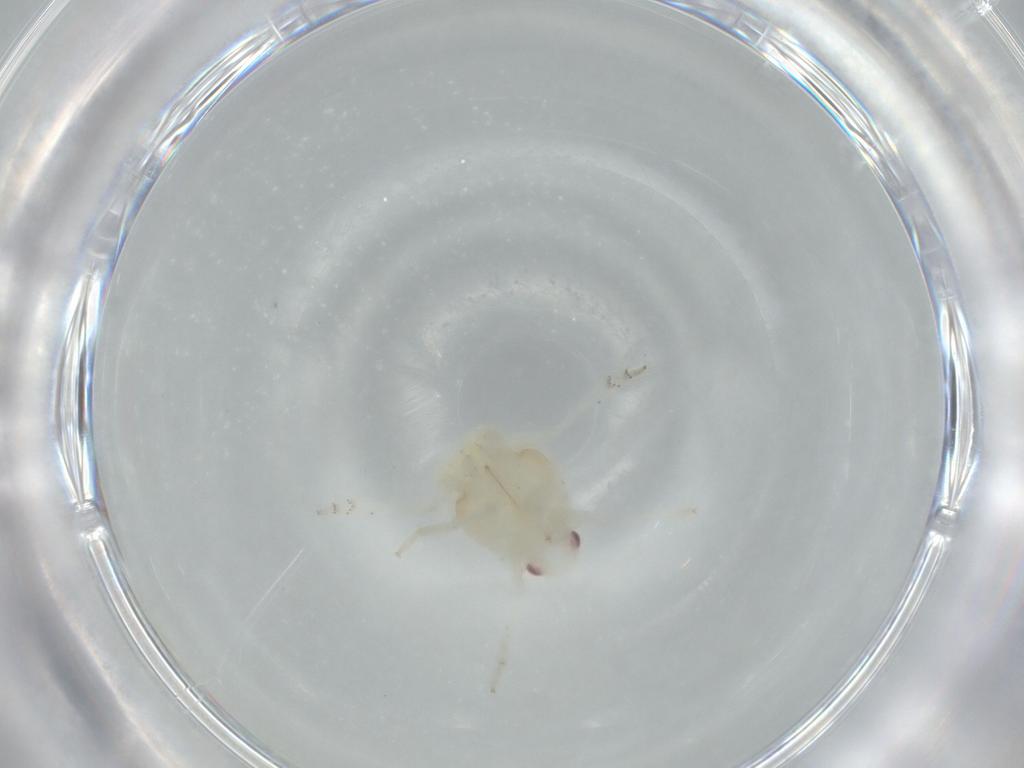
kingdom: Animalia
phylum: Arthropoda
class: Insecta
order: Hemiptera
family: Flatidae
